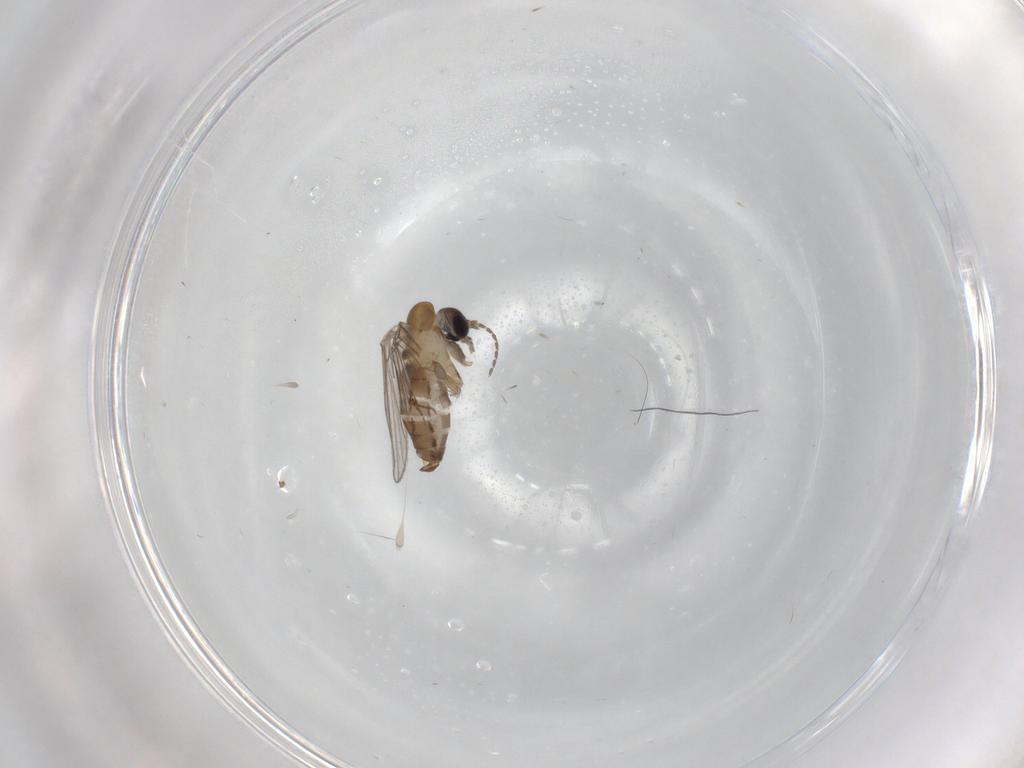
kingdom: Animalia
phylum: Arthropoda
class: Insecta
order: Diptera
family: Psychodidae
